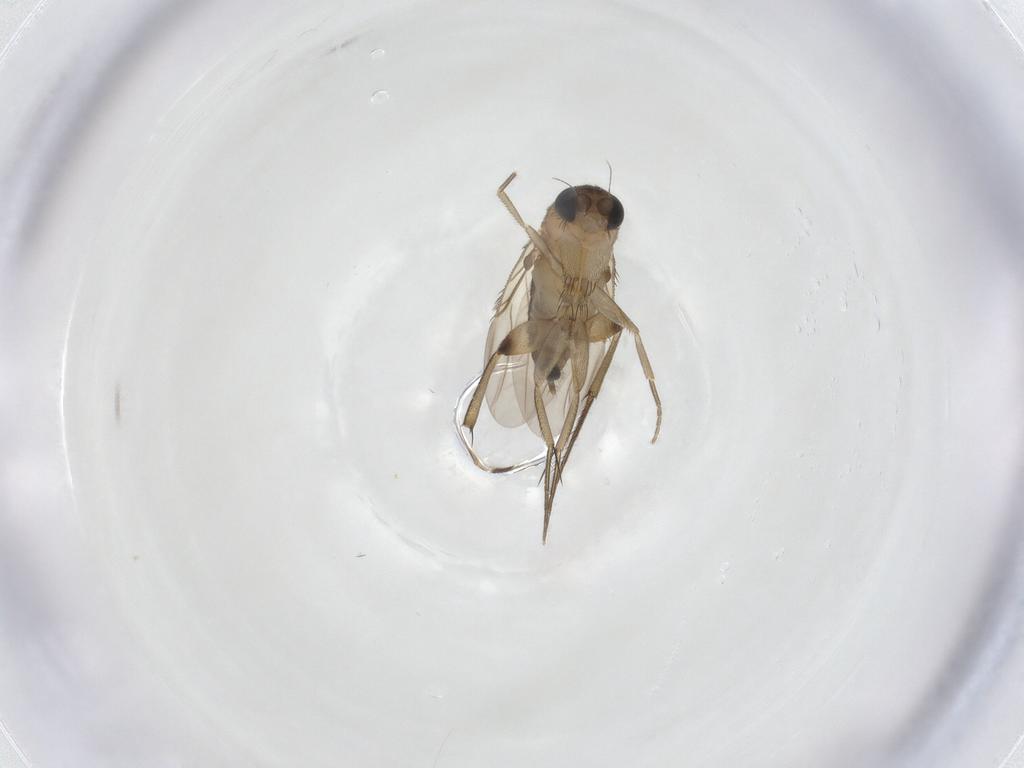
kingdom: Animalia
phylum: Arthropoda
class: Insecta
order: Diptera
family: Phoridae
